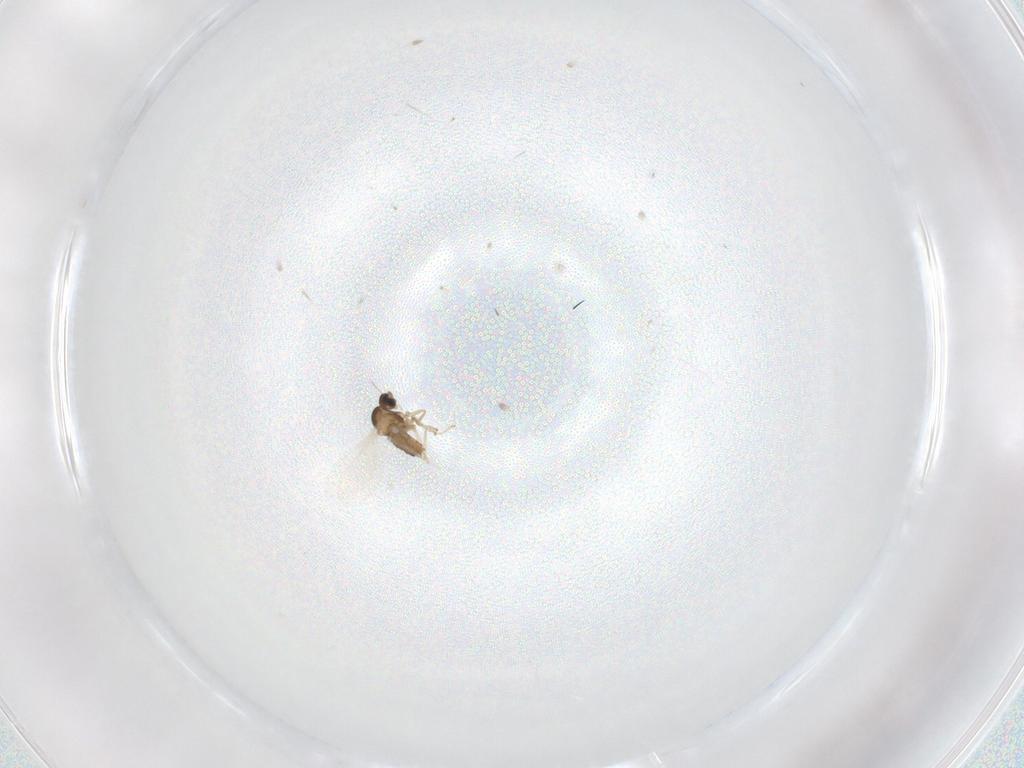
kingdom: Animalia
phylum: Arthropoda
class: Insecta
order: Diptera
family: Cecidomyiidae
